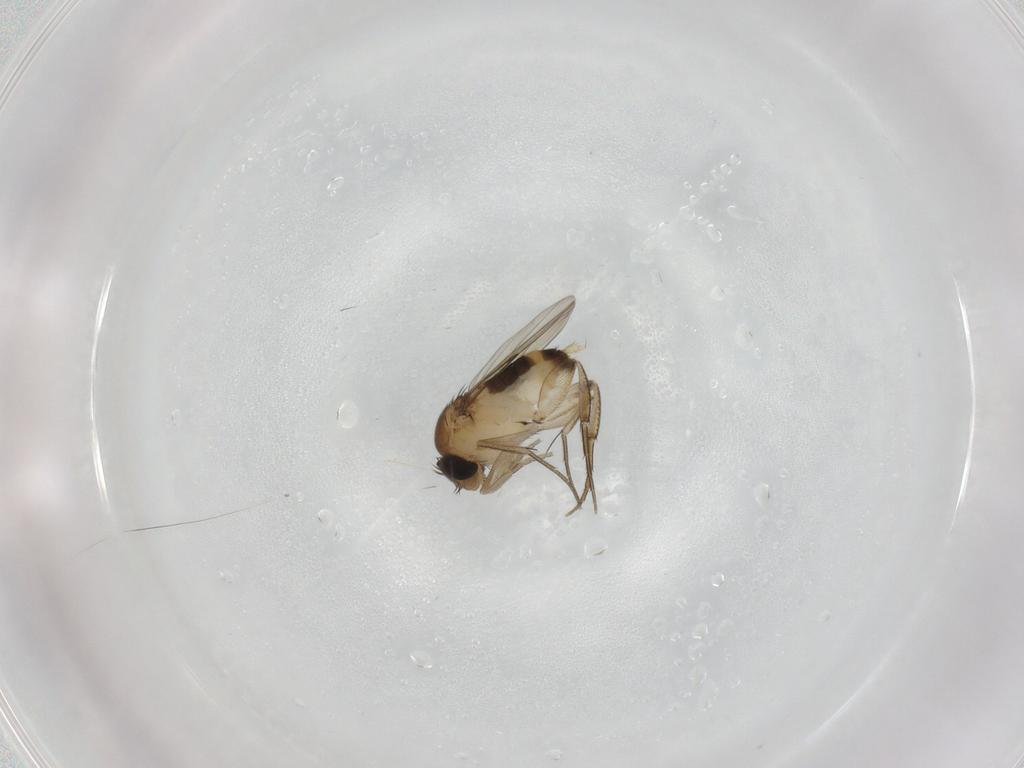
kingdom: Animalia
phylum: Arthropoda
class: Insecta
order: Diptera
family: Phoridae
